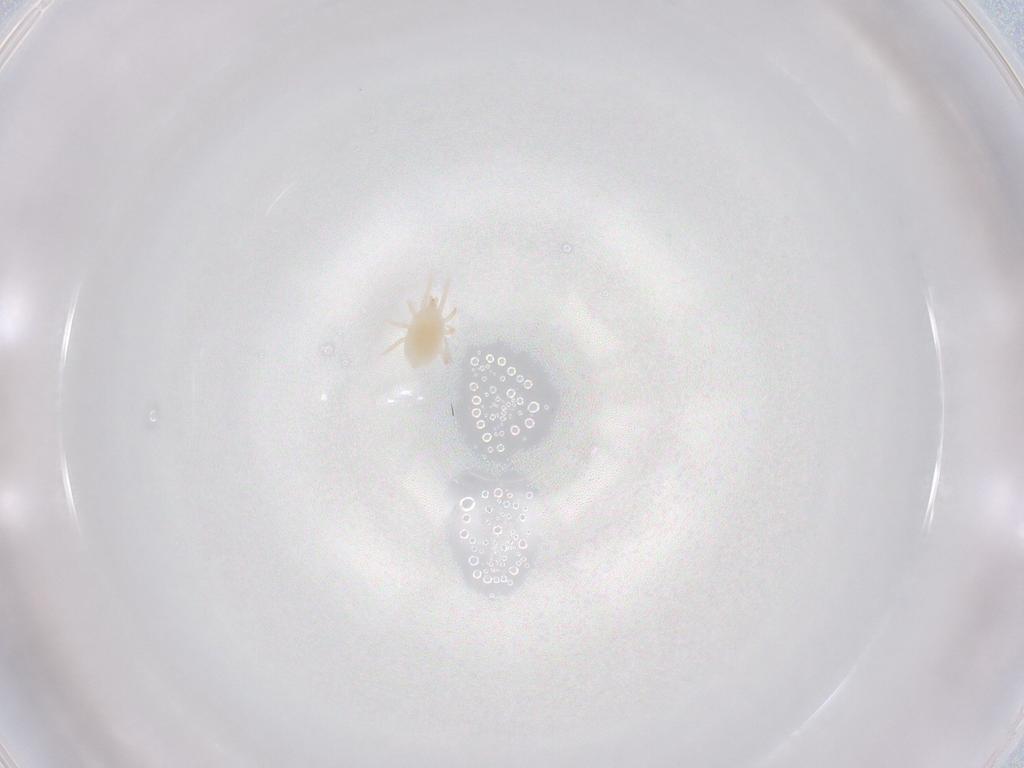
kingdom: Animalia
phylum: Arthropoda
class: Arachnida
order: Mesostigmata
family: Laelapidae
